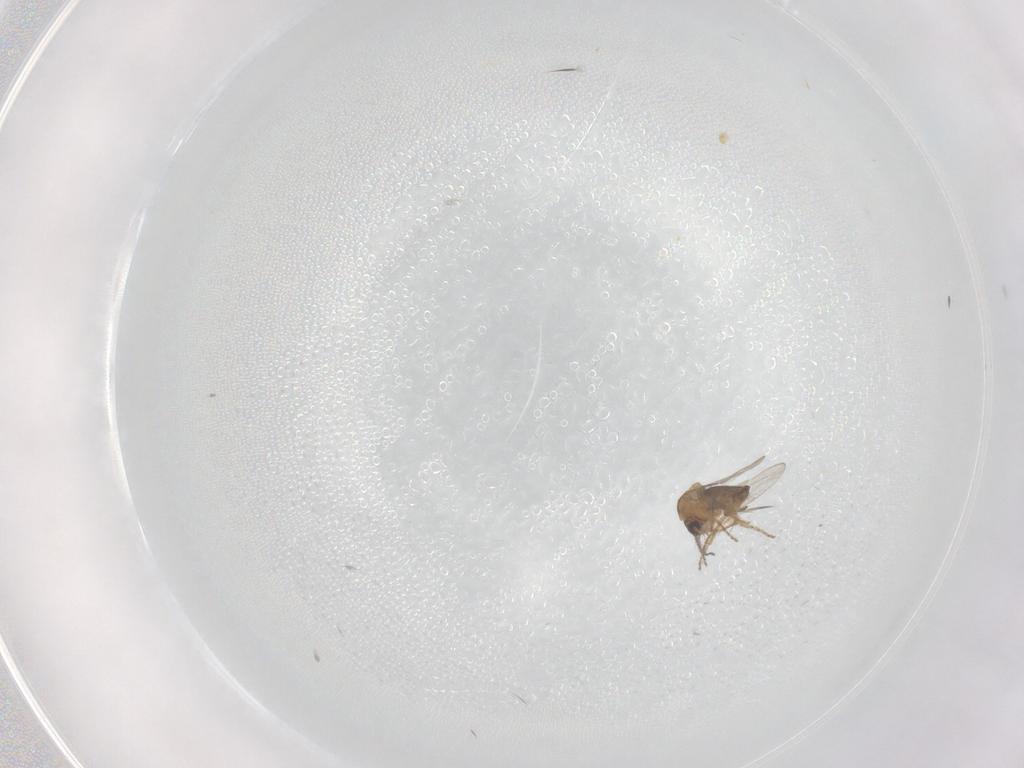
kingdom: Animalia
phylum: Arthropoda
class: Insecta
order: Diptera
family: Ceratopogonidae
